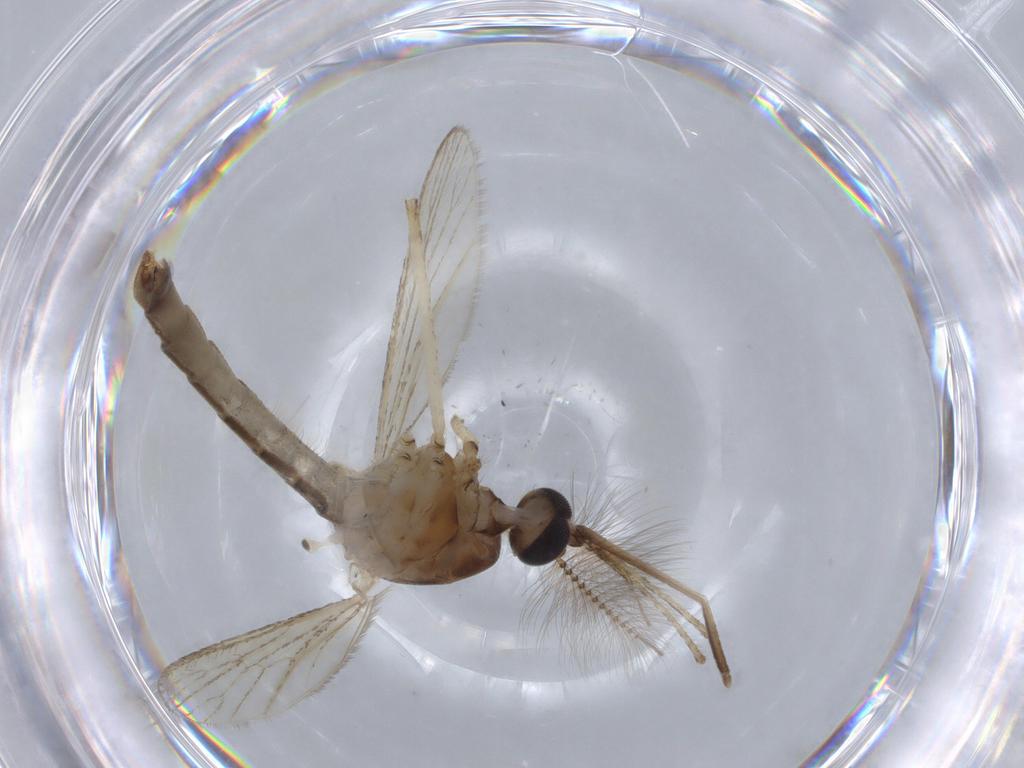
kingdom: Animalia
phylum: Arthropoda
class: Insecta
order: Diptera
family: Culicidae
